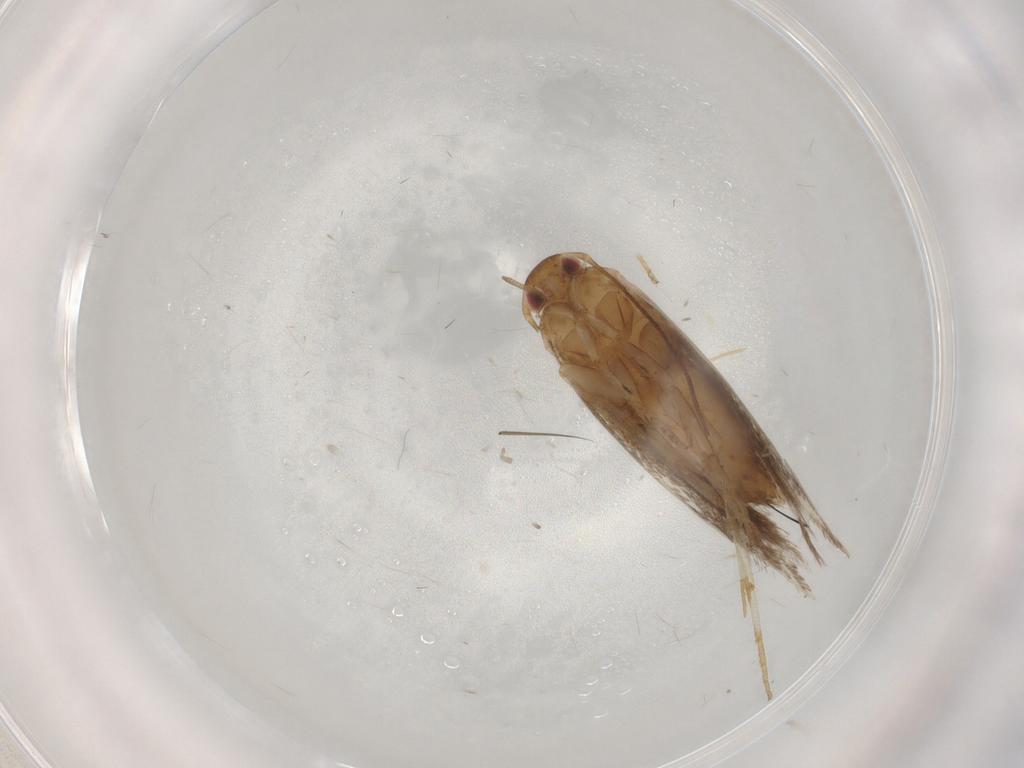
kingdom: Animalia
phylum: Arthropoda
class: Insecta
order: Lepidoptera
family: Gelechiidae
